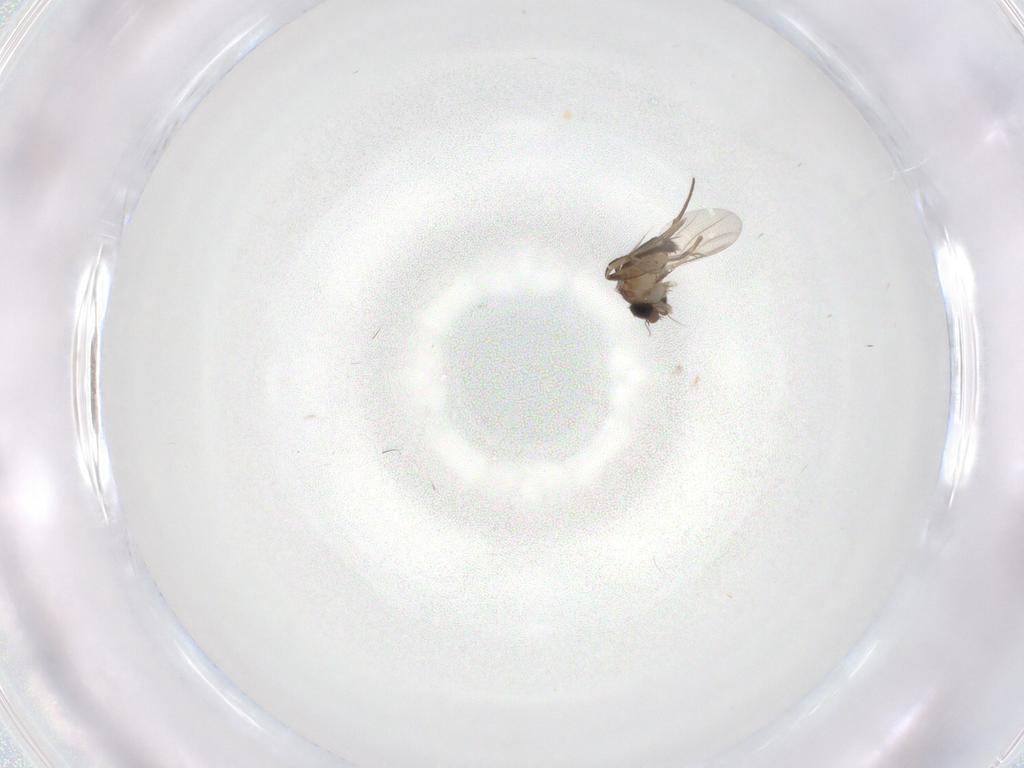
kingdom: Animalia
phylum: Arthropoda
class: Insecta
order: Diptera
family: Phoridae
